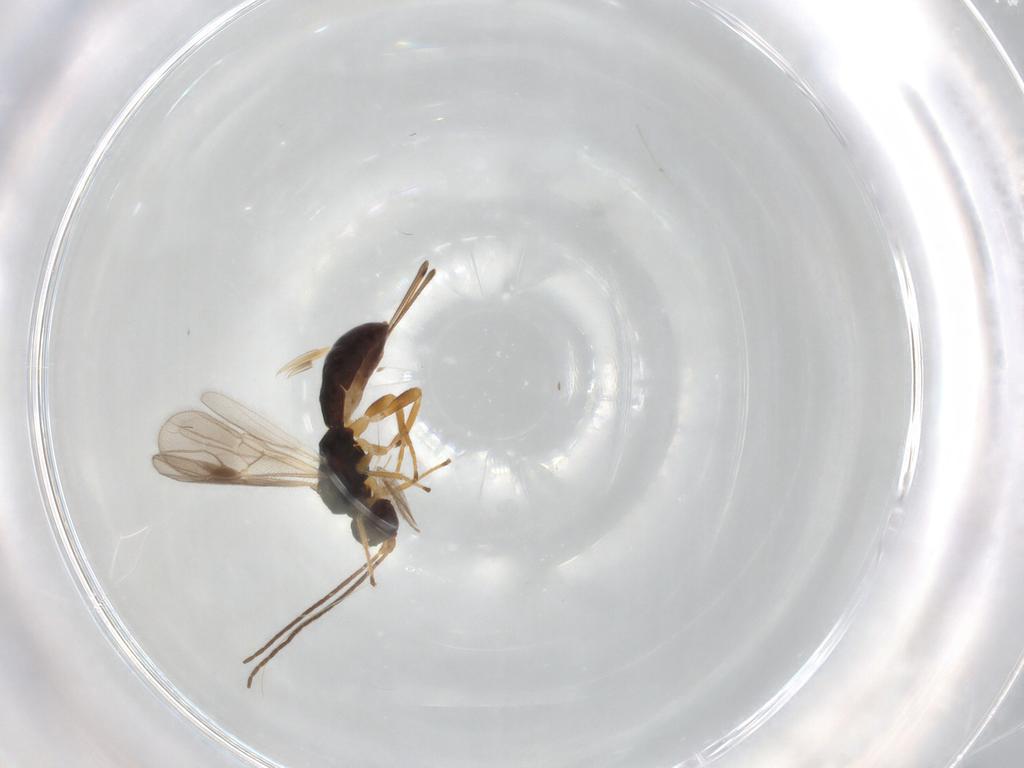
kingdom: Animalia
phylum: Arthropoda
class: Insecta
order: Hymenoptera
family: Braconidae
